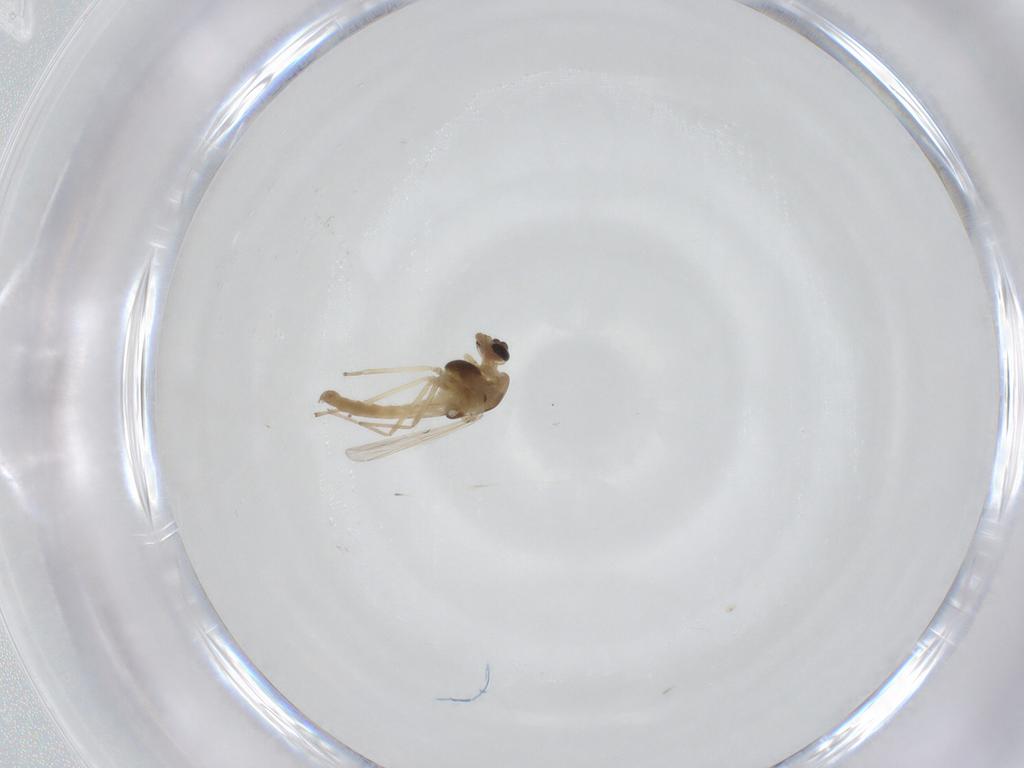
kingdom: Animalia
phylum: Arthropoda
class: Insecta
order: Diptera
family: Chironomidae
